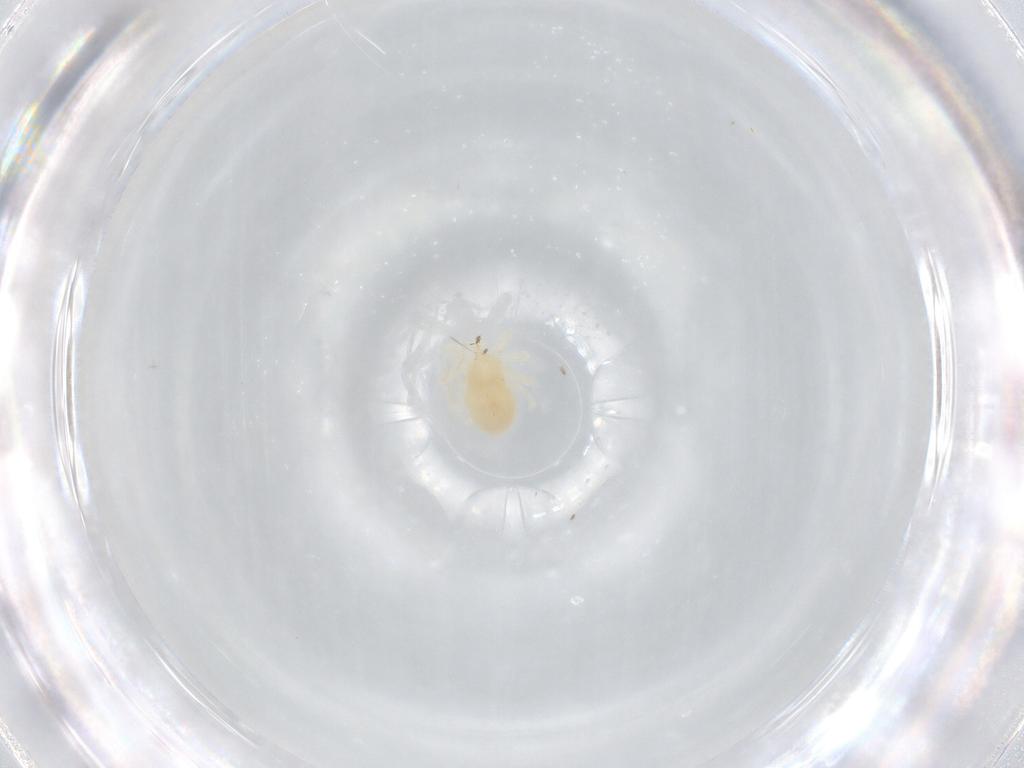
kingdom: Animalia
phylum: Arthropoda
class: Arachnida
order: Trombidiformes
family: Anystidae
